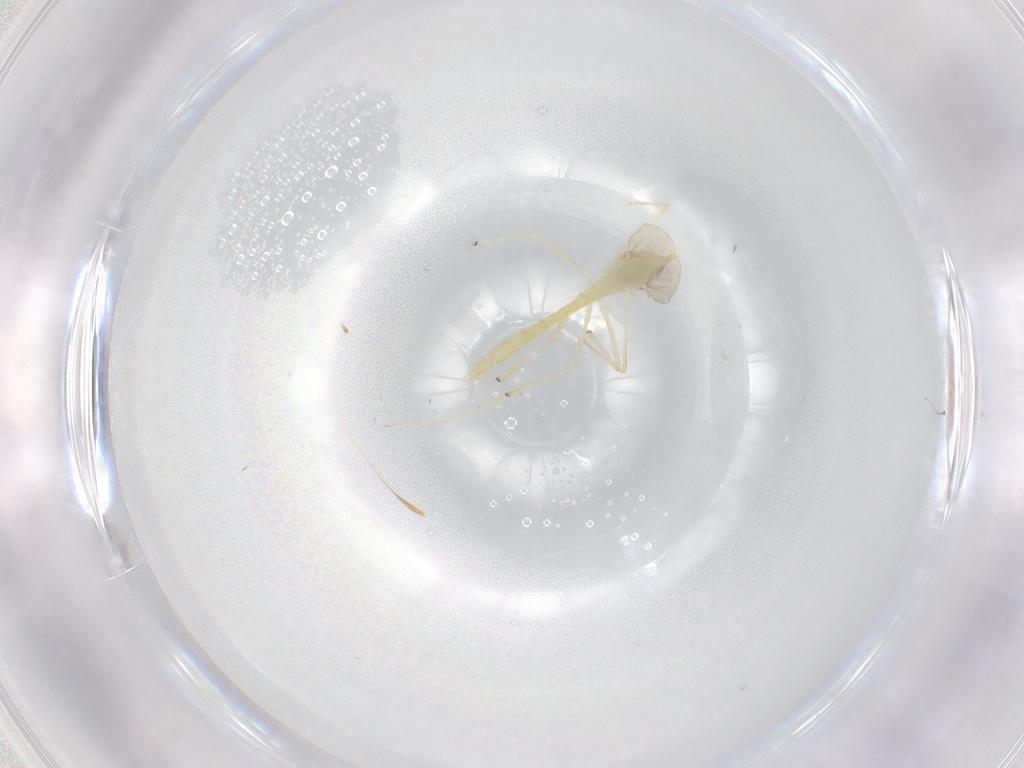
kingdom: Animalia
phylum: Arthropoda
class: Insecta
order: Diptera
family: Chironomidae
